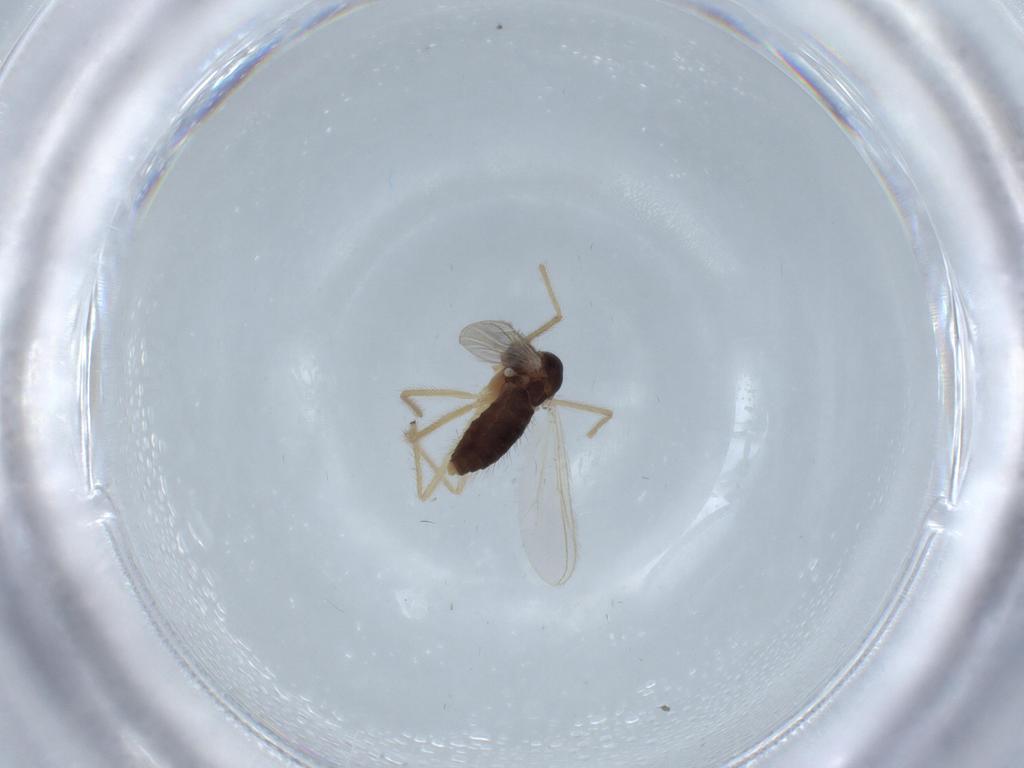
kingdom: Animalia
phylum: Arthropoda
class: Insecta
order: Diptera
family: Chironomidae
